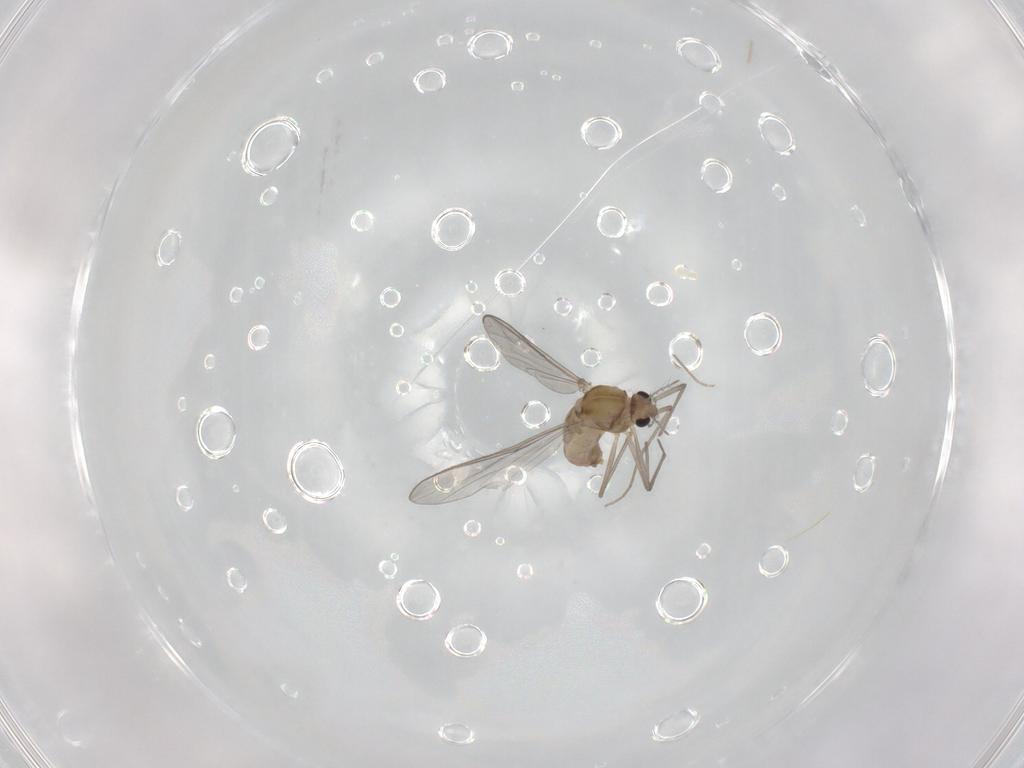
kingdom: Animalia
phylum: Arthropoda
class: Insecta
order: Diptera
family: Chironomidae
